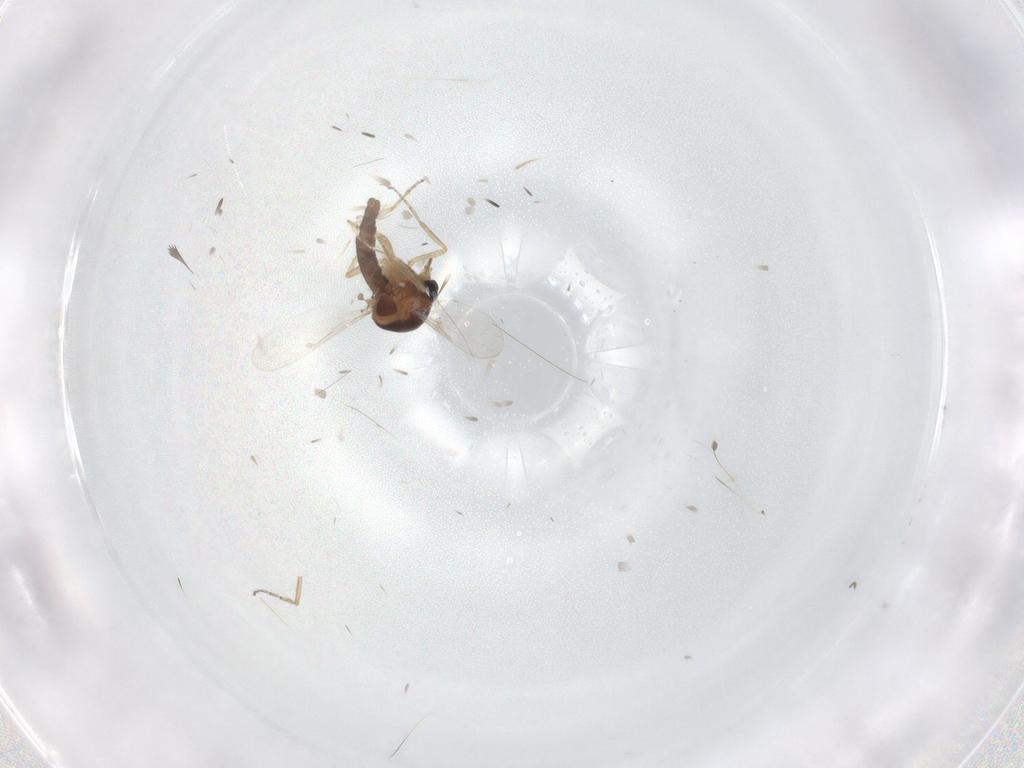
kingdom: Animalia
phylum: Arthropoda
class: Insecta
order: Diptera
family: Ceratopogonidae
